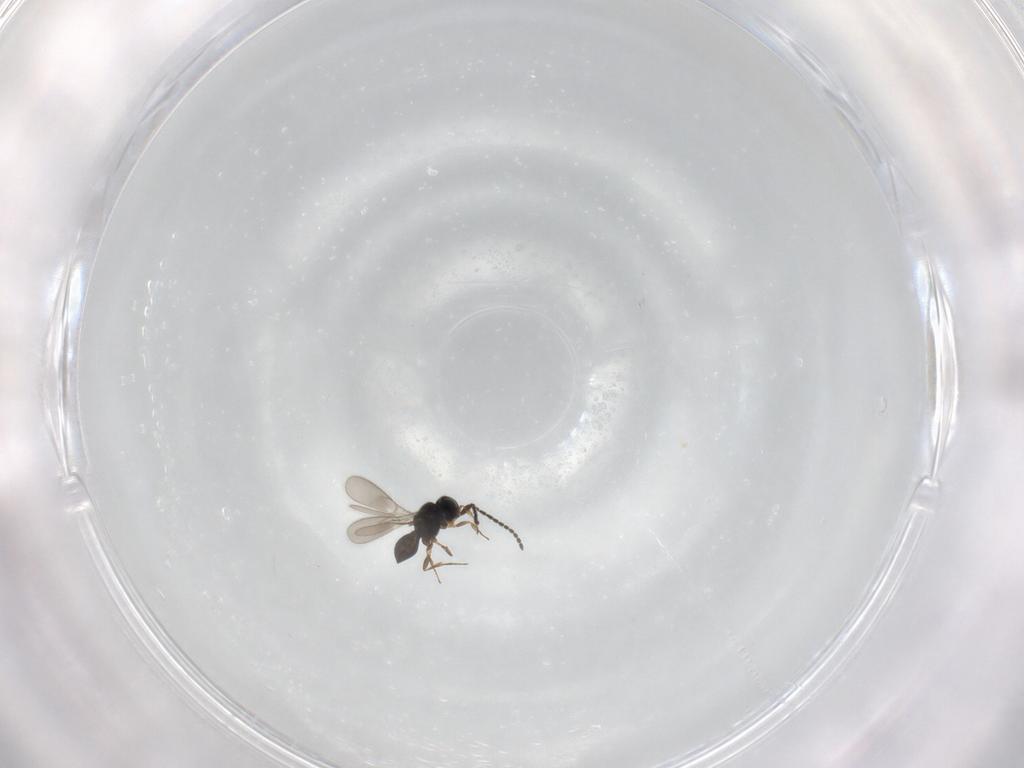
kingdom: Animalia
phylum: Arthropoda
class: Insecta
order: Hymenoptera
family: Scelionidae
